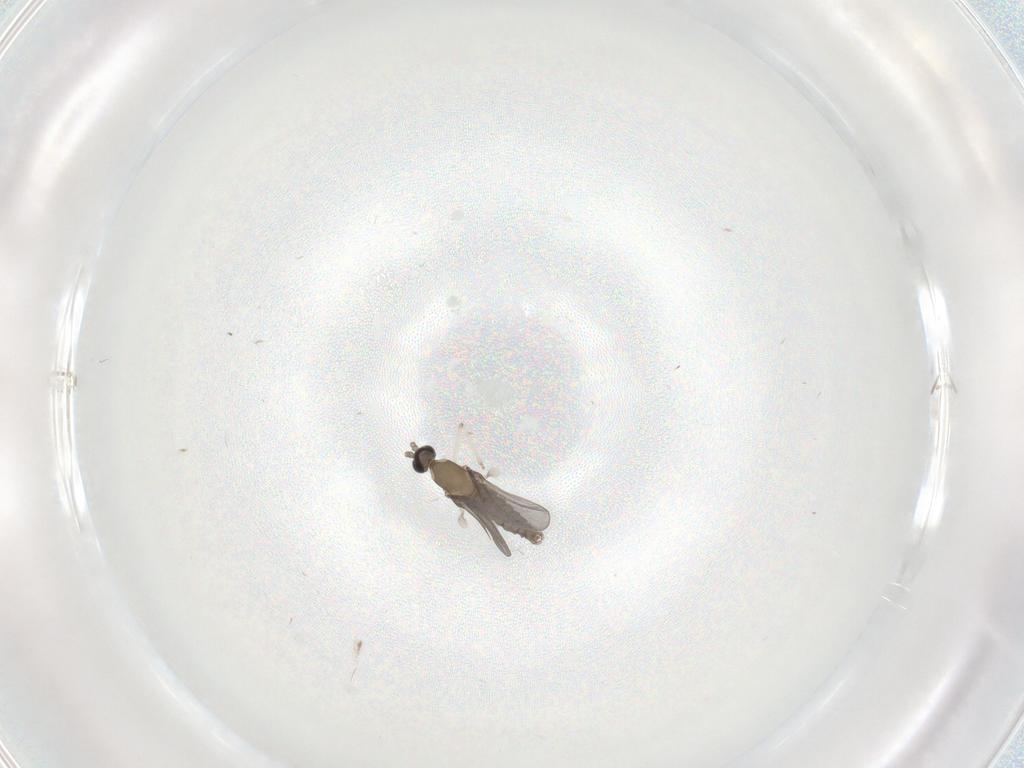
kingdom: Animalia
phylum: Arthropoda
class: Insecta
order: Diptera
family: Cecidomyiidae
